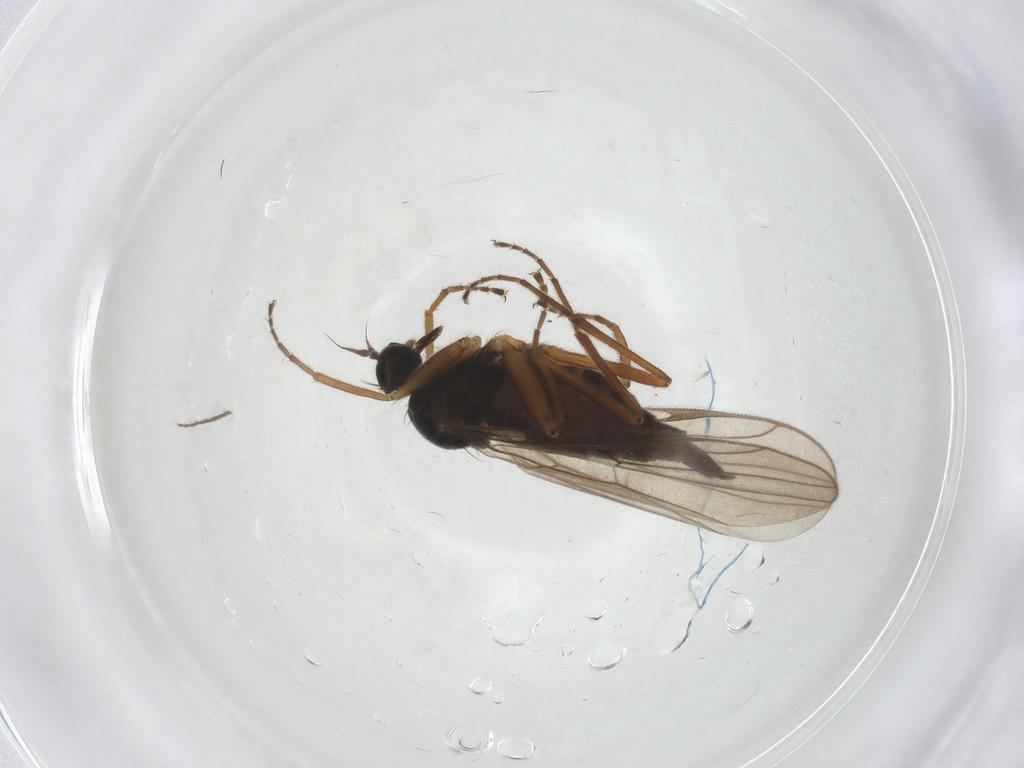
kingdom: Animalia
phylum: Arthropoda
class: Insecta
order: Diptera
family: Hybotidae
